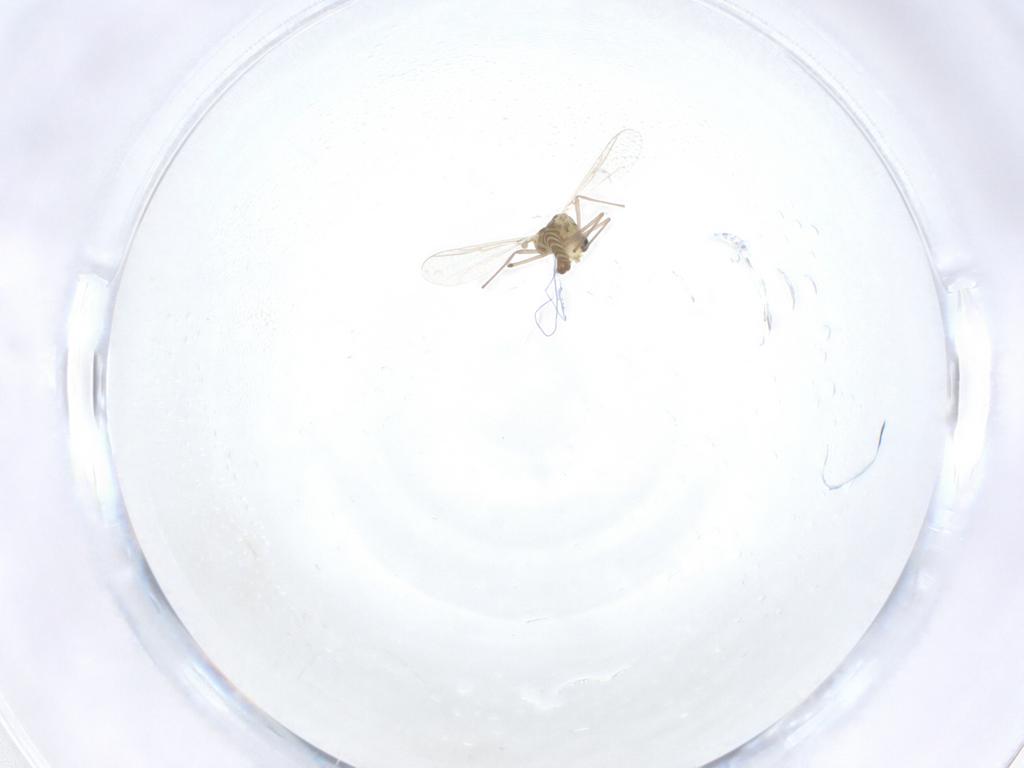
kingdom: Animalia
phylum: Arthropoda
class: Insecta
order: Diptera
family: Chironomidae
